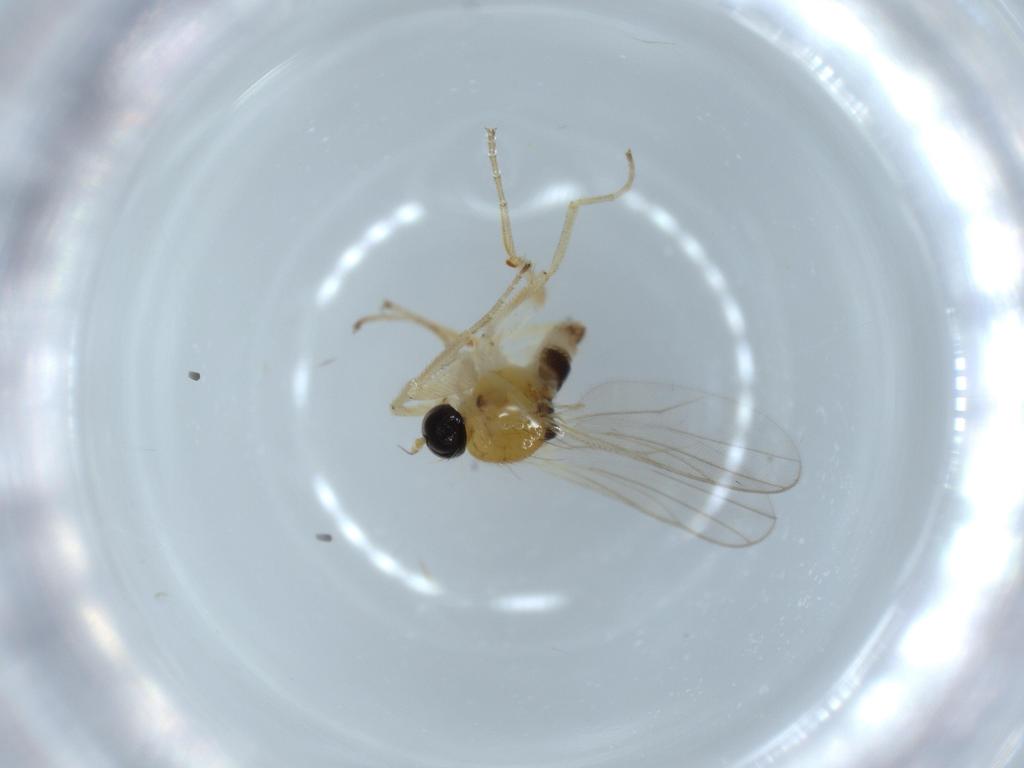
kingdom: Animalia
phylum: Arthropoda
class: Insecta
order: Diptera
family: Hybotidae
